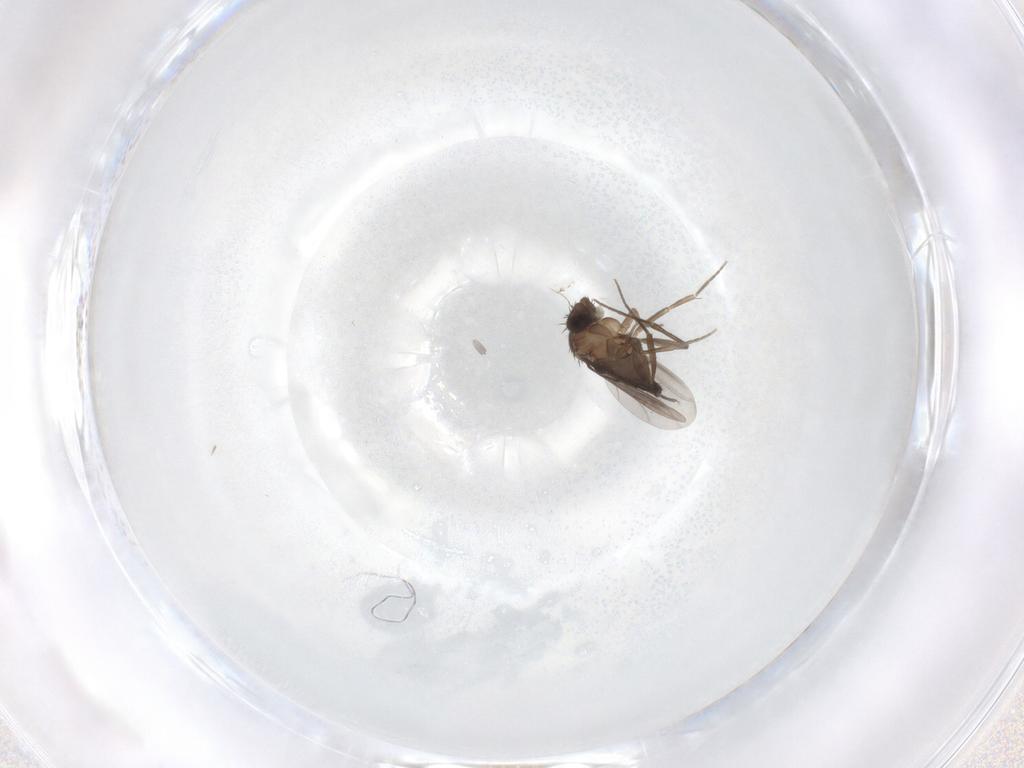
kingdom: Animalia
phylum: Arthropoda
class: Insecta
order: Diptera
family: Phoridae
